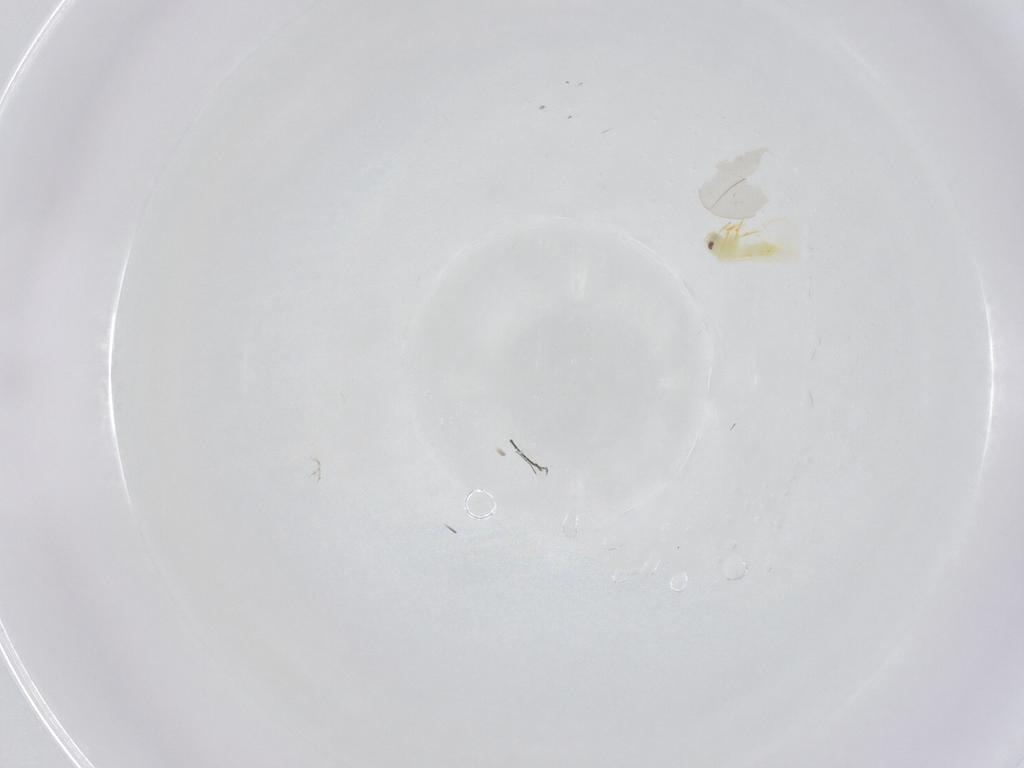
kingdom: Animalia
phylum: Arthropoda
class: Insecta
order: Hemiptera
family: Aleyrodidae
